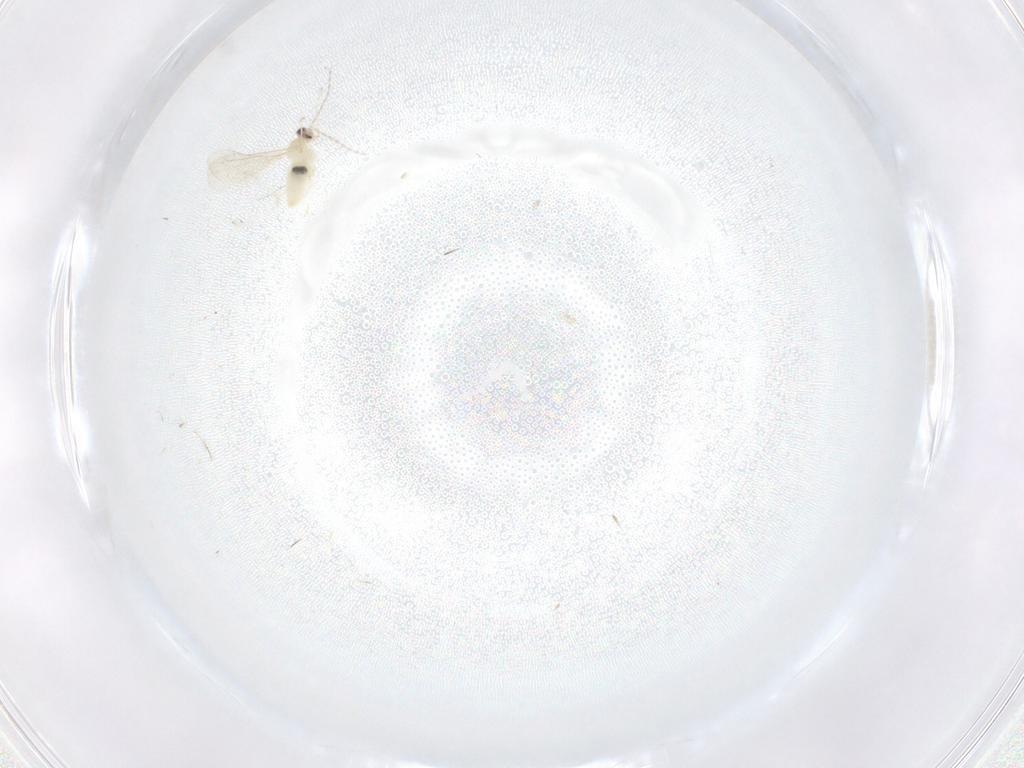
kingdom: Animalia
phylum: Arthropoda
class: Insecta
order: Diptera
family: Cecidomyiidae
